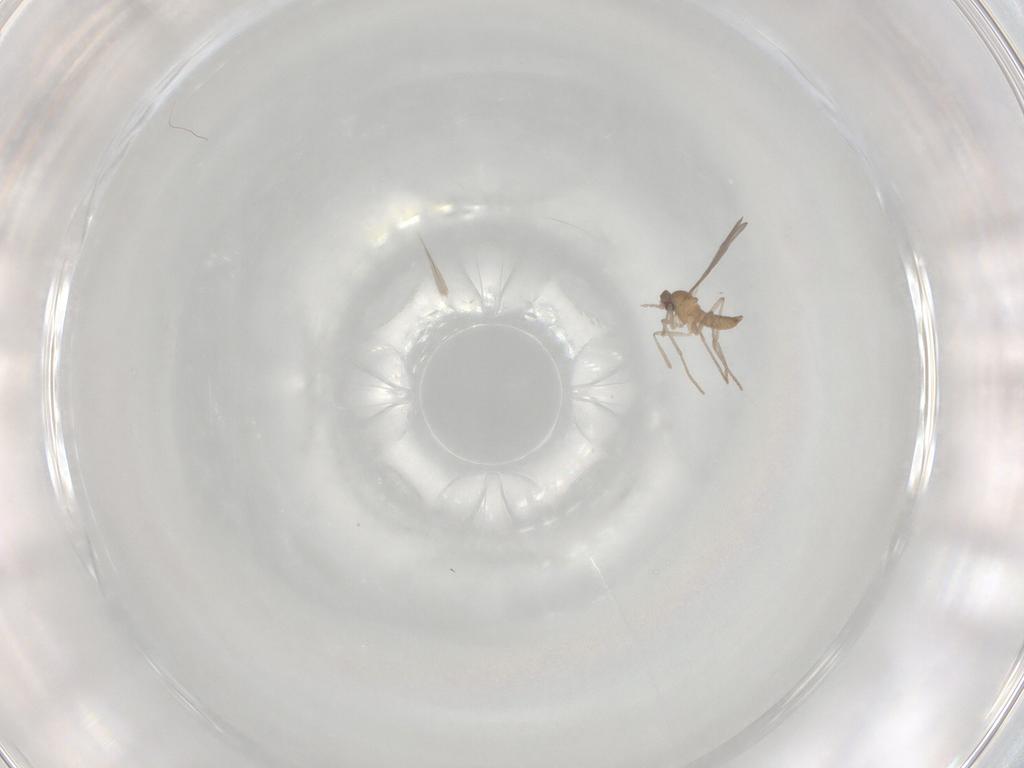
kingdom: Animalia
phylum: Arthropoda
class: Insecta
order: Diptera
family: Cecidomyiidae
